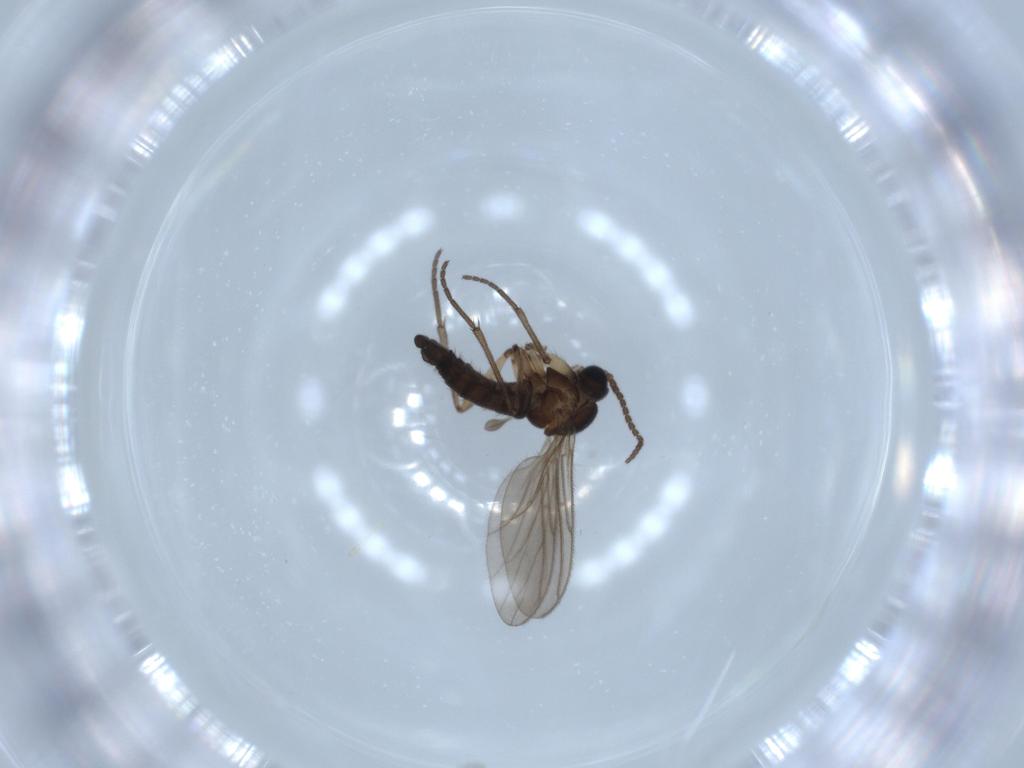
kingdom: Animalia
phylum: Arthropoda
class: Insecta
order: Diptera
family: Sciaridae
